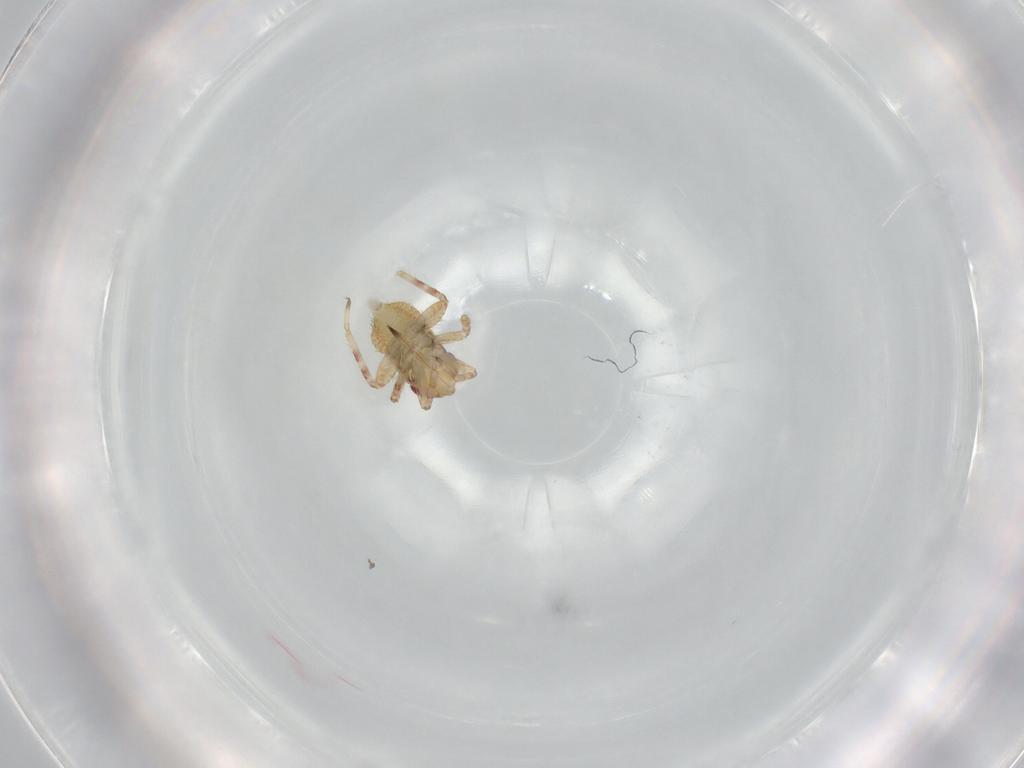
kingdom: Animalia
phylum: Arthropoda
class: Insecta
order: Hemiptera
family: Miridae
